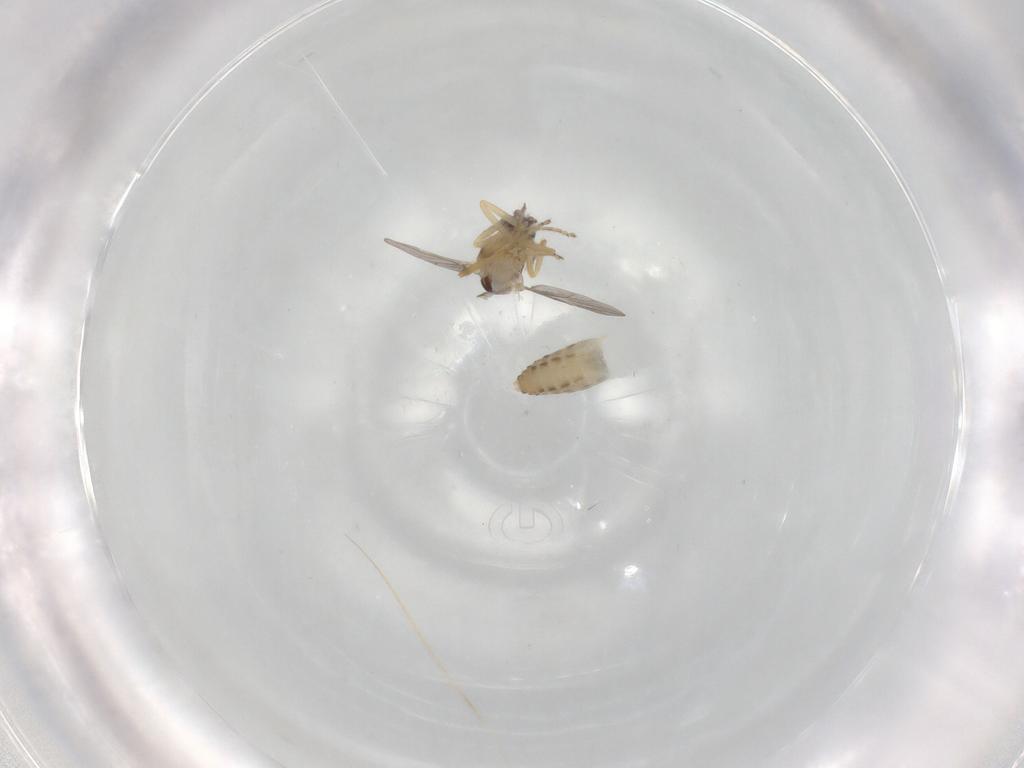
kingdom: Animalia
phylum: Arthropoda
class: Insecta
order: Diptera
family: Ceratopogonidae
